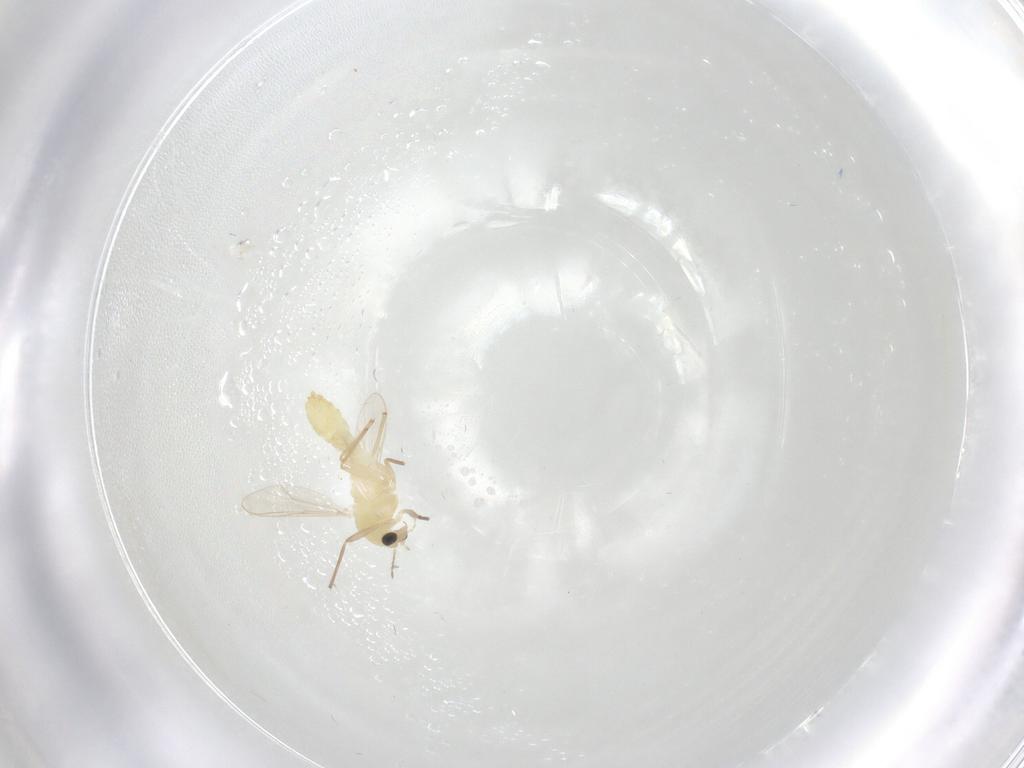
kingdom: Animalia
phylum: Arthropoda
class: Insecta
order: Diptera
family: Chironomidae
